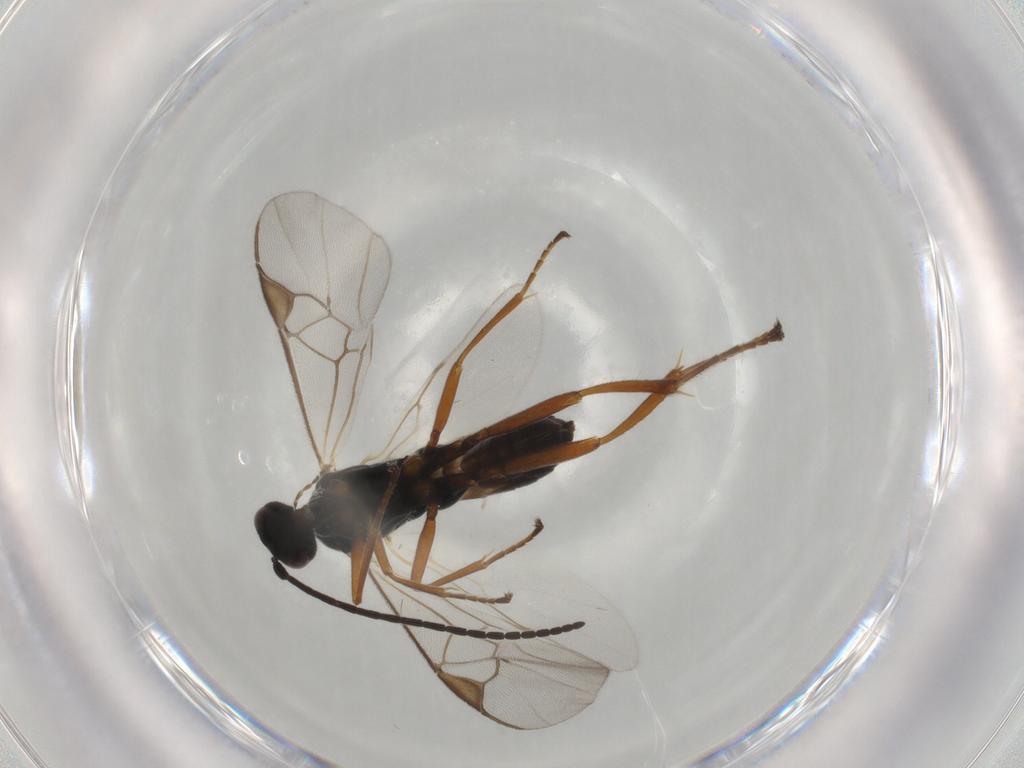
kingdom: Animalia
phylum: Arthropoda
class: Insecta
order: Hymenoptera
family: Braconidae
